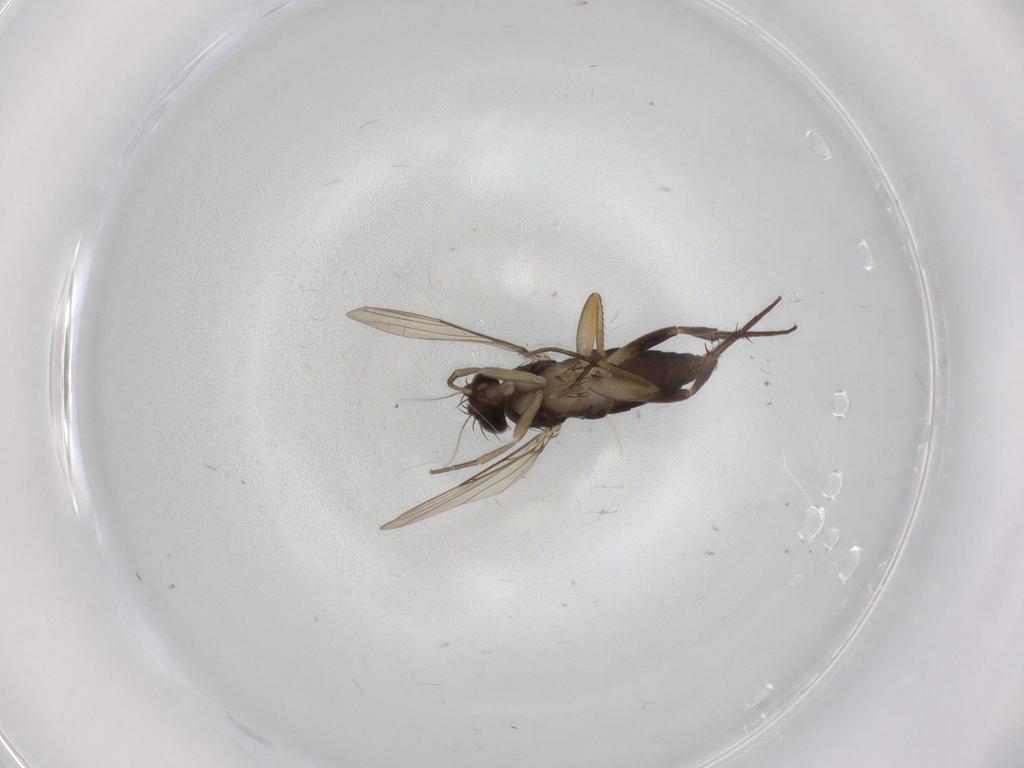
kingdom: Animalia
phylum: Arthropoda
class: Insecta
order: Diptera
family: Phoridae
